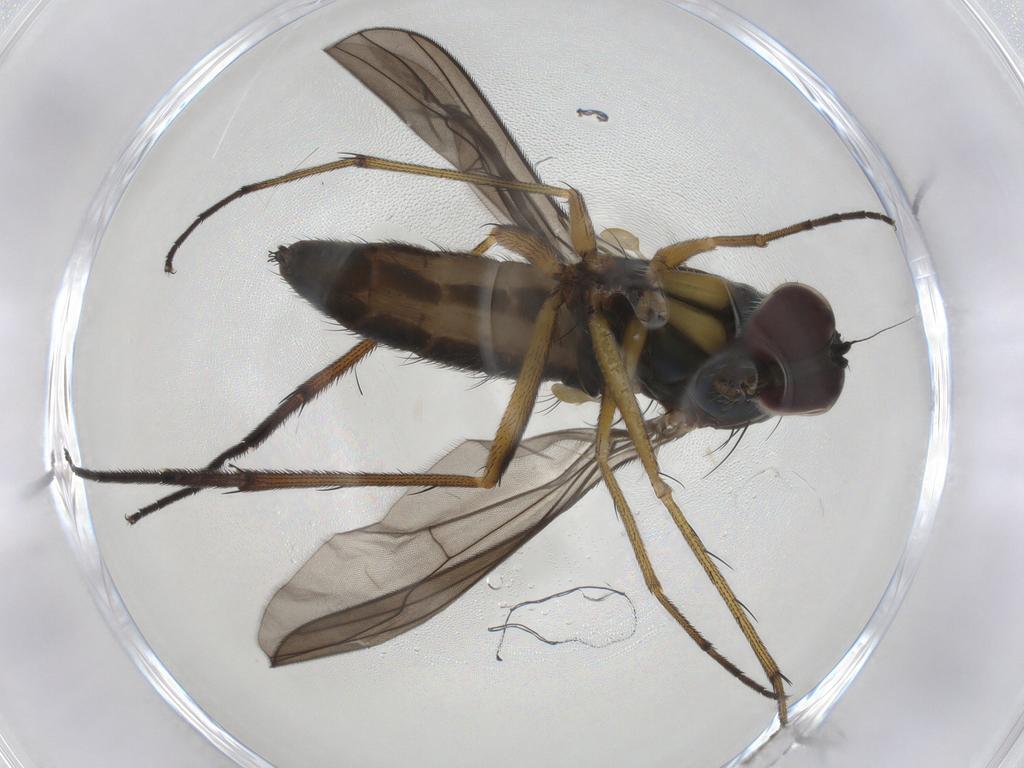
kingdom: Animalia
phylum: Arthropoda
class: Insecta
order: Diptera
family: Dolichopodidae
